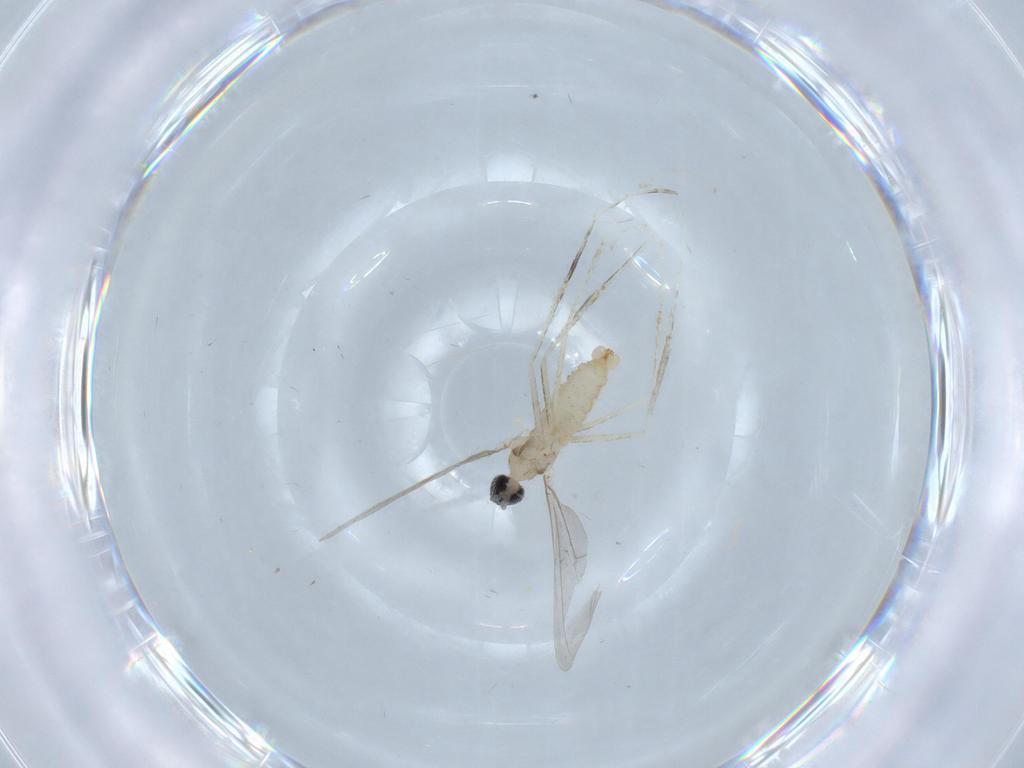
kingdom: Animalia
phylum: Arthropoda
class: Insecta
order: Diptera
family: Cecidomyiidae
